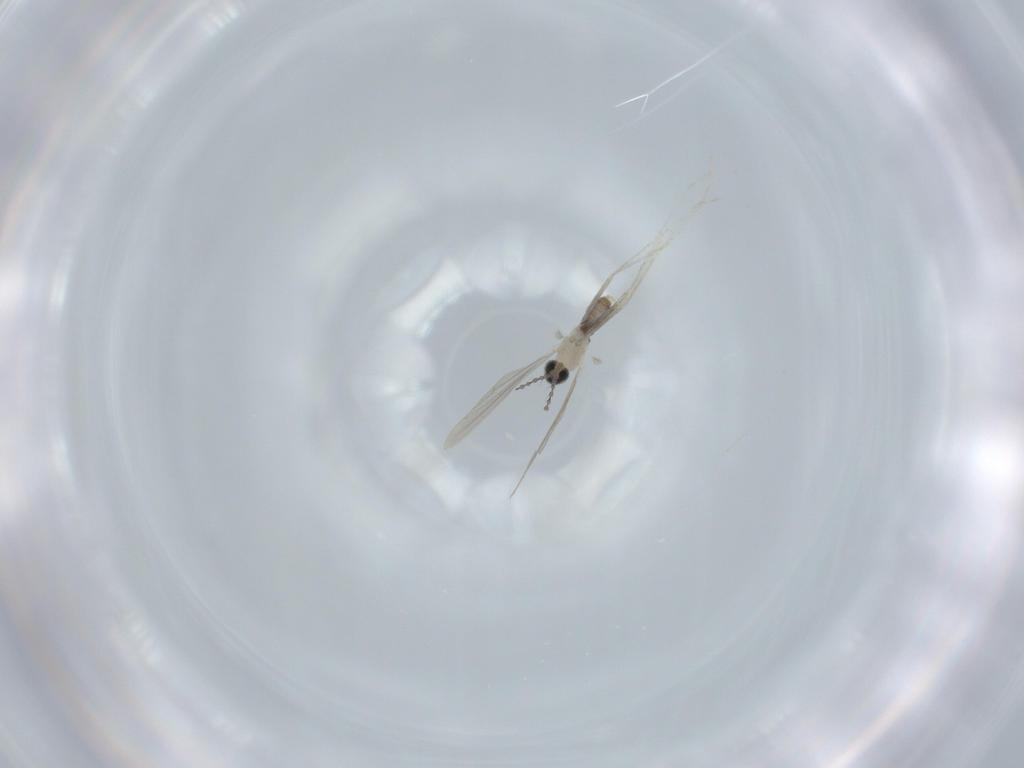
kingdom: Animalia
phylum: Arthropoda
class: Insecta
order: Diptera
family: Cecidomyiidae
